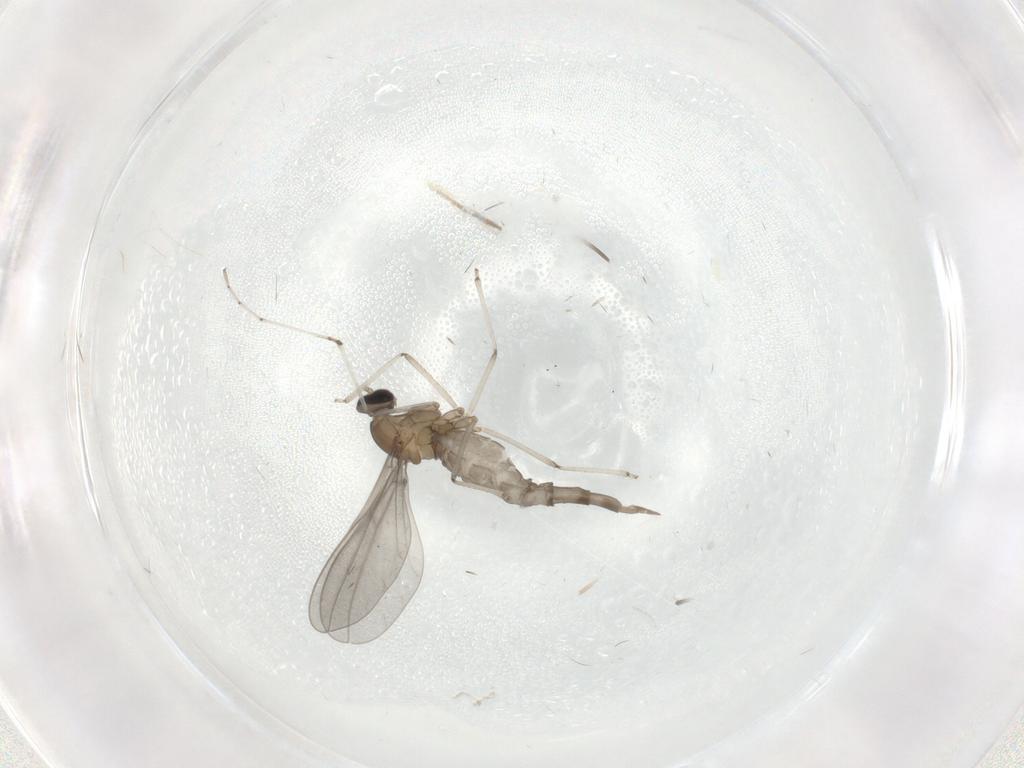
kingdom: Animalia
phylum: Arthropoda
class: Insecta
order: Diptera
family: Cecidomyiidae
